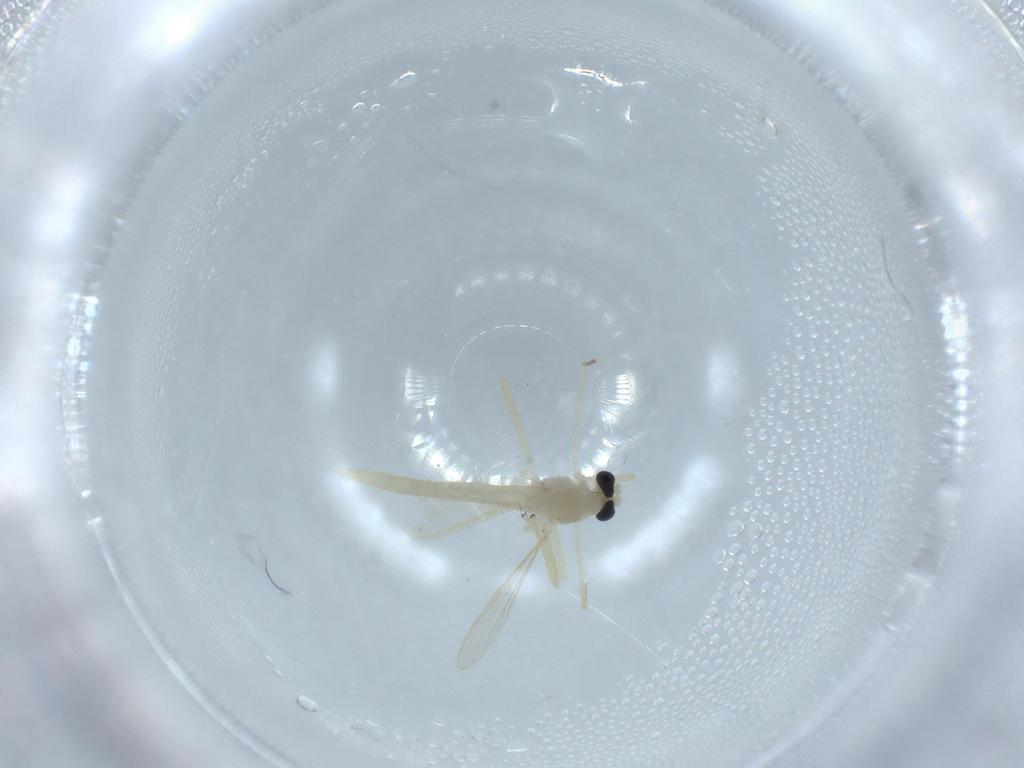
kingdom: Animalia
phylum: Arthropoda
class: Insecta
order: Diptera
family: Chironomidae
